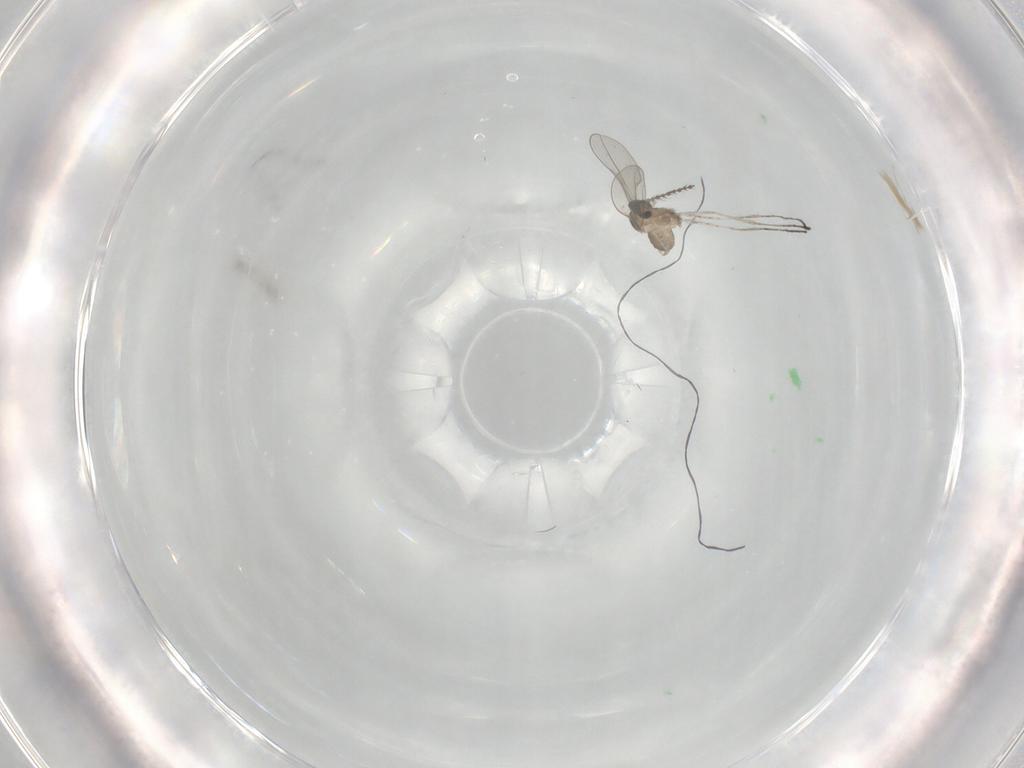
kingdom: Animalia
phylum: Arthropoda
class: Insecta
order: Diptera
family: Cecidomyiidae
